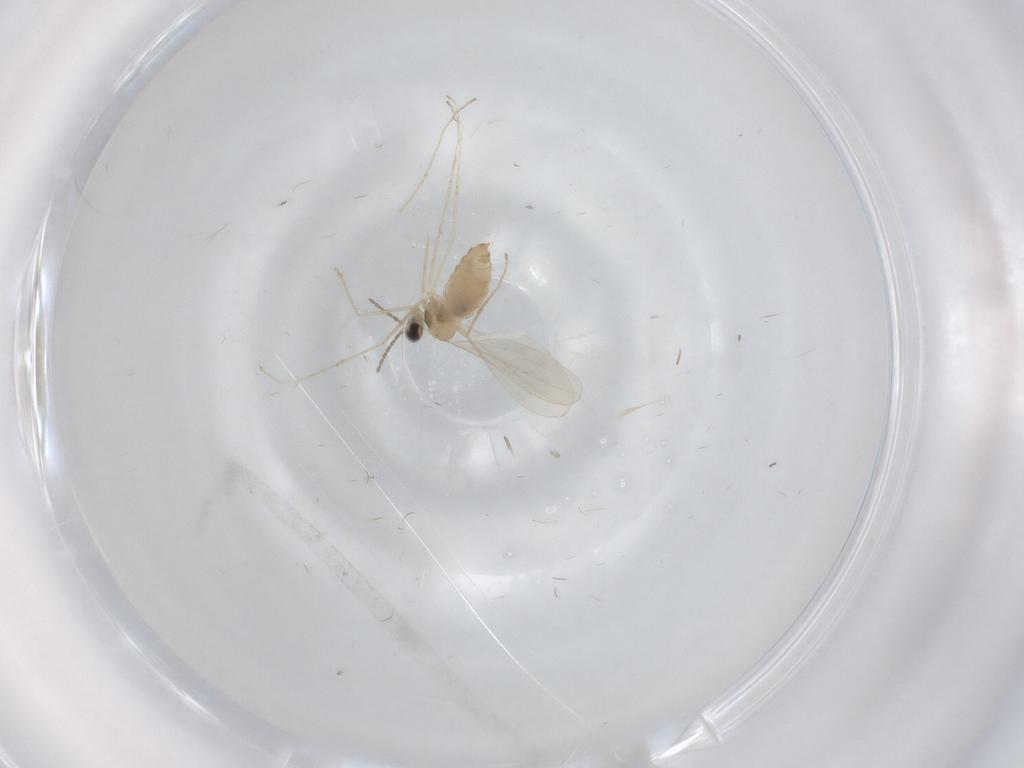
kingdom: Animalia
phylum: Arthropoda
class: Insecta
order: Diptera
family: Cecidomyiidae
